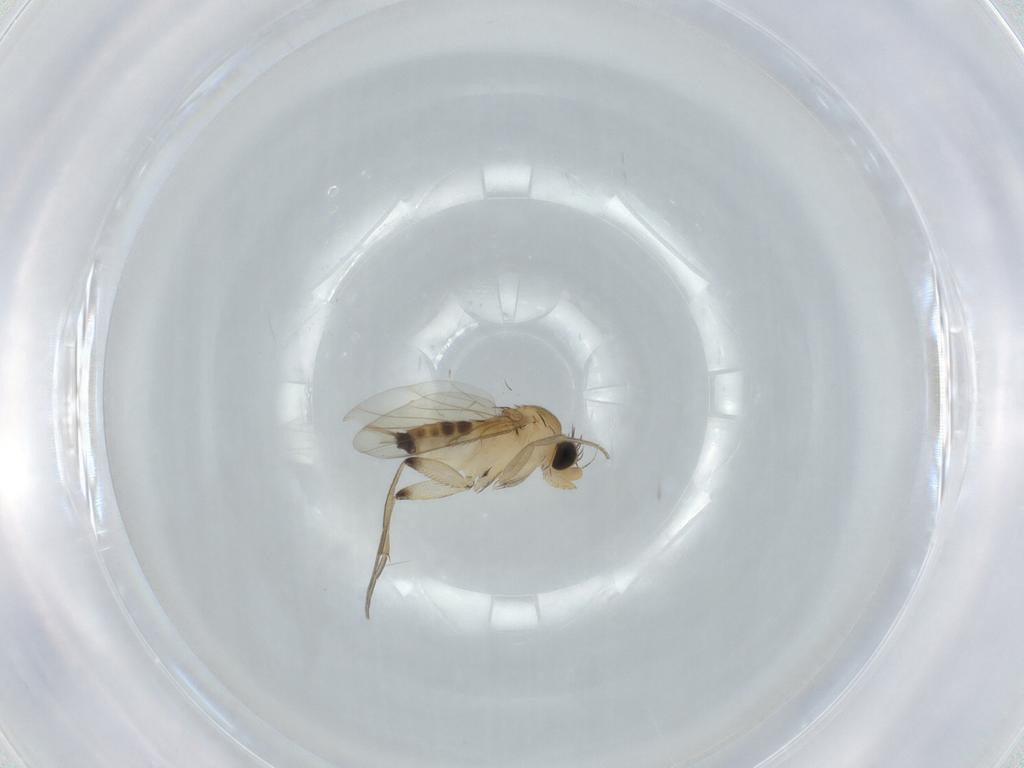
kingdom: Animalia
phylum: Arthropoda
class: Insecta
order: Diptera
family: Phoridae
